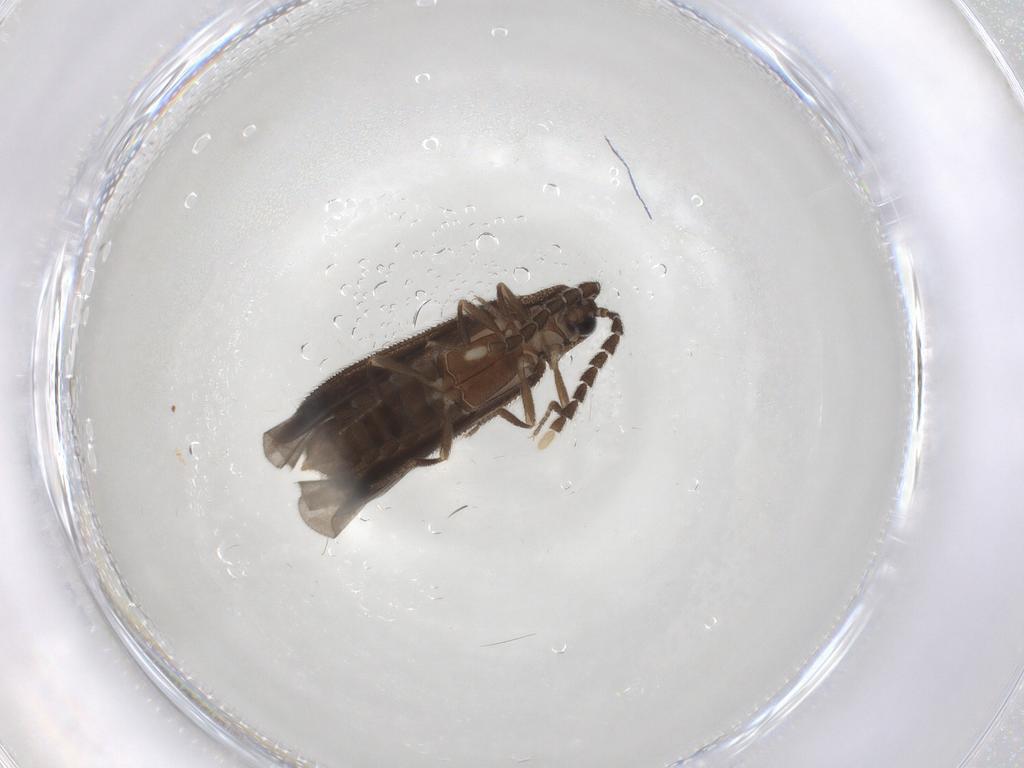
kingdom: Animalia
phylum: Arthropoda
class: Insecta
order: Coleoptera
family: Lycidae
